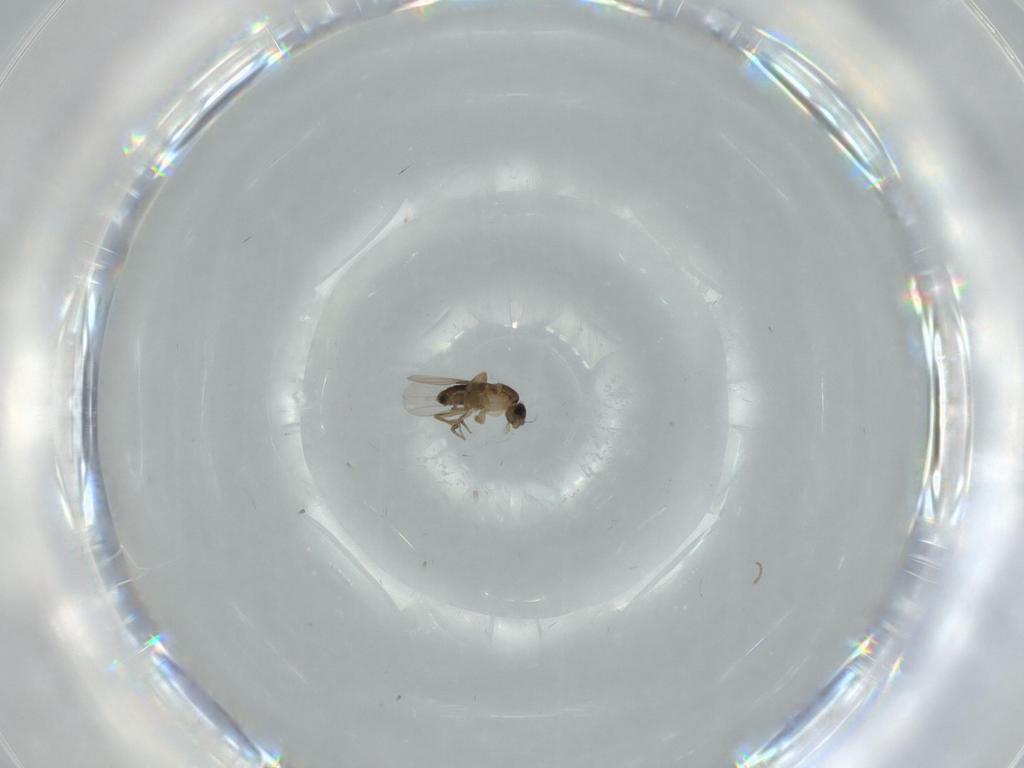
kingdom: Animalia
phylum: Arthropoda
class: Insecta
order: Diptera
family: Phoridae
